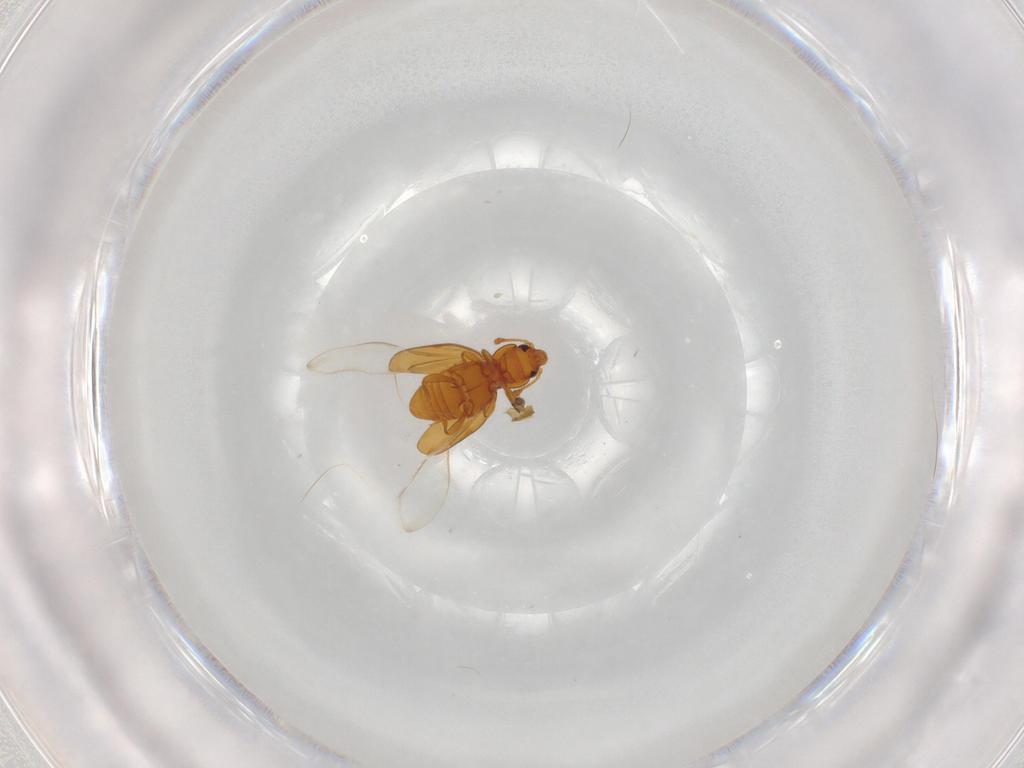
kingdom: Animalia
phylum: Arthropoda
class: Insecta
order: Coleoptera
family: Endomychidae
